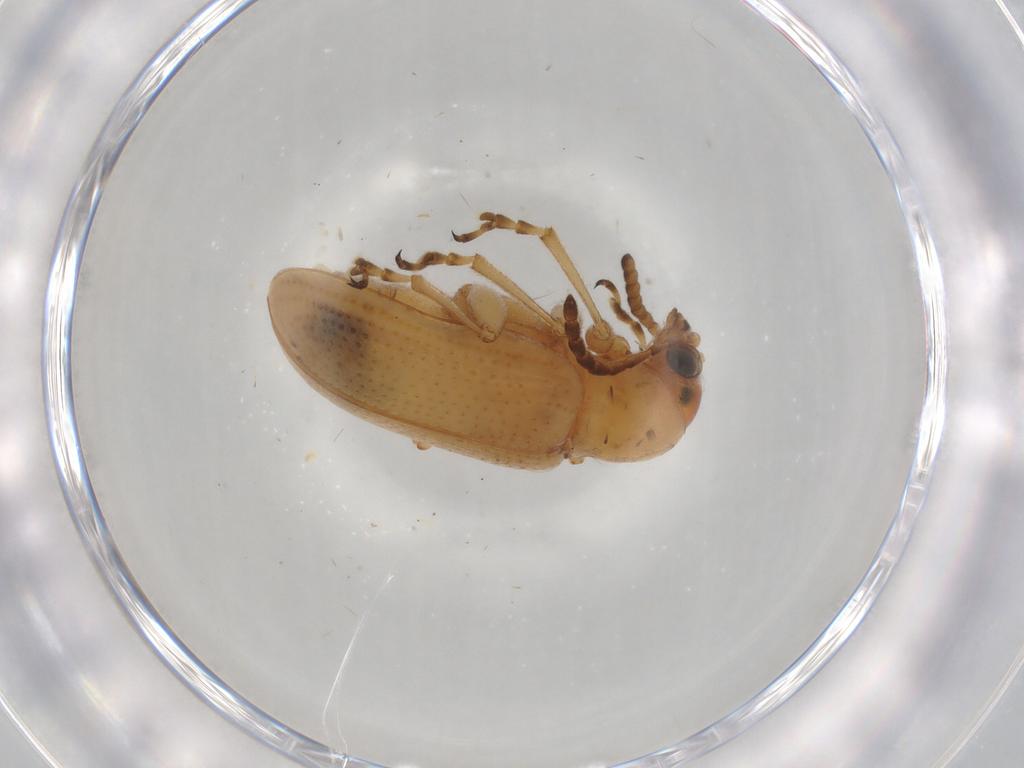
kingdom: Animalia
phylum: Arthropoda
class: Insecta
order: Coleoptera
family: Chrysomelidae
